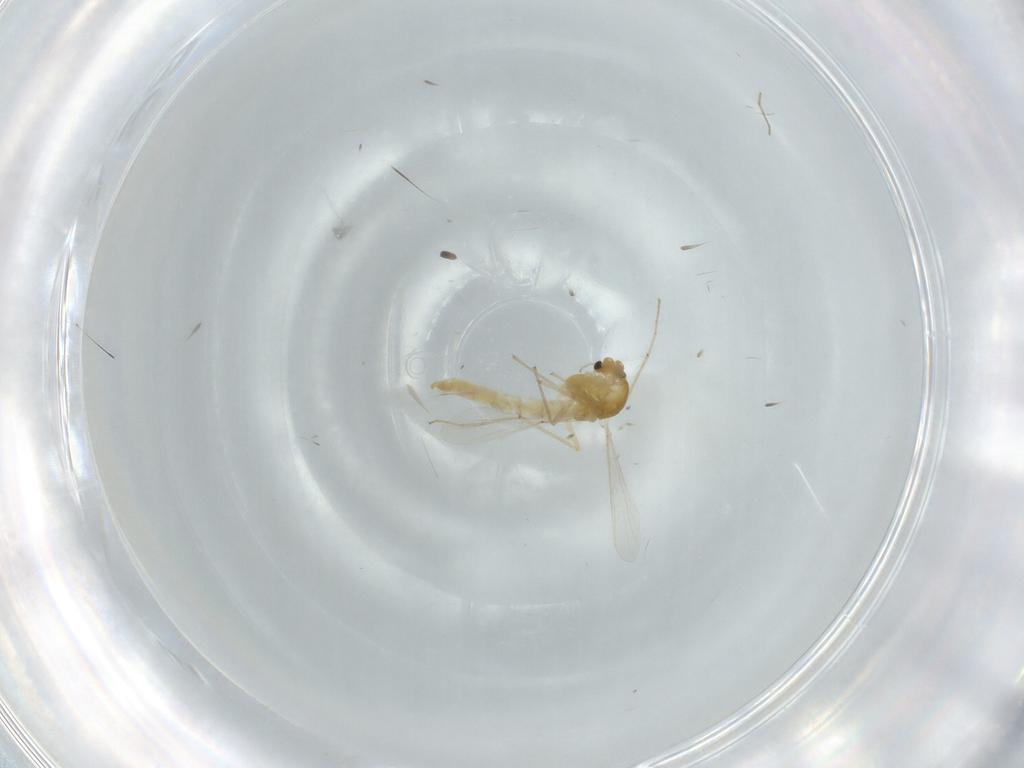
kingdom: Animalia
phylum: Arthropoda
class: Insecta
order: Diptera
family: Chironomidae
